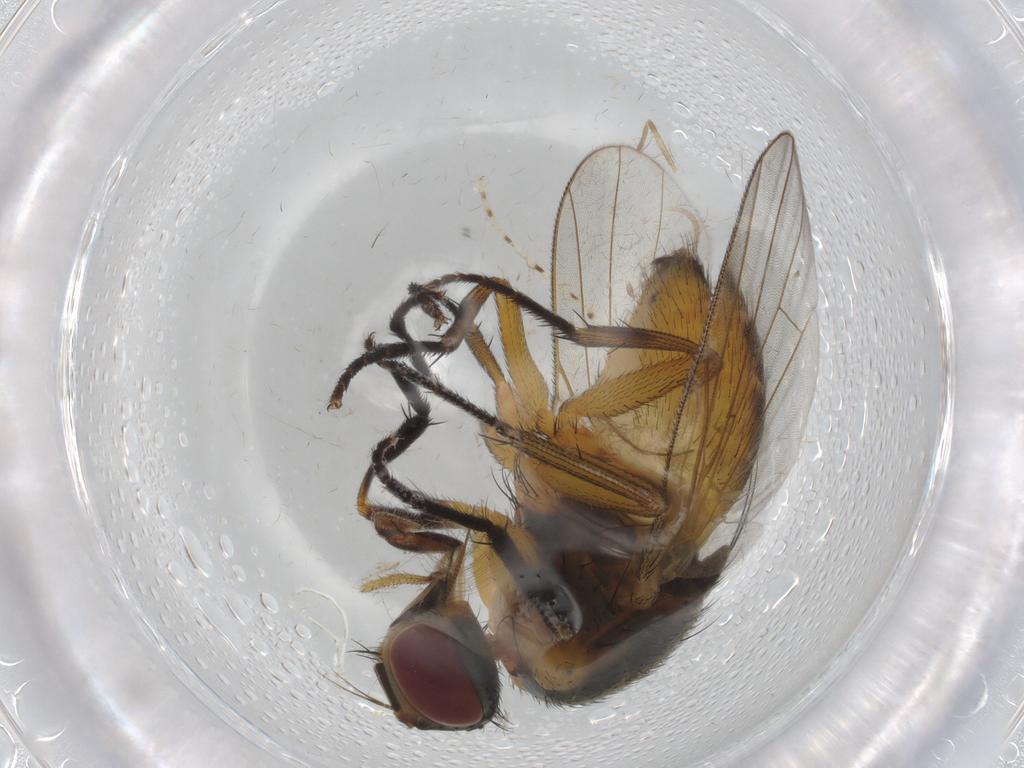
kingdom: Animalia
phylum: Arthropoda
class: Insecta
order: Diptera
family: Muscidae
